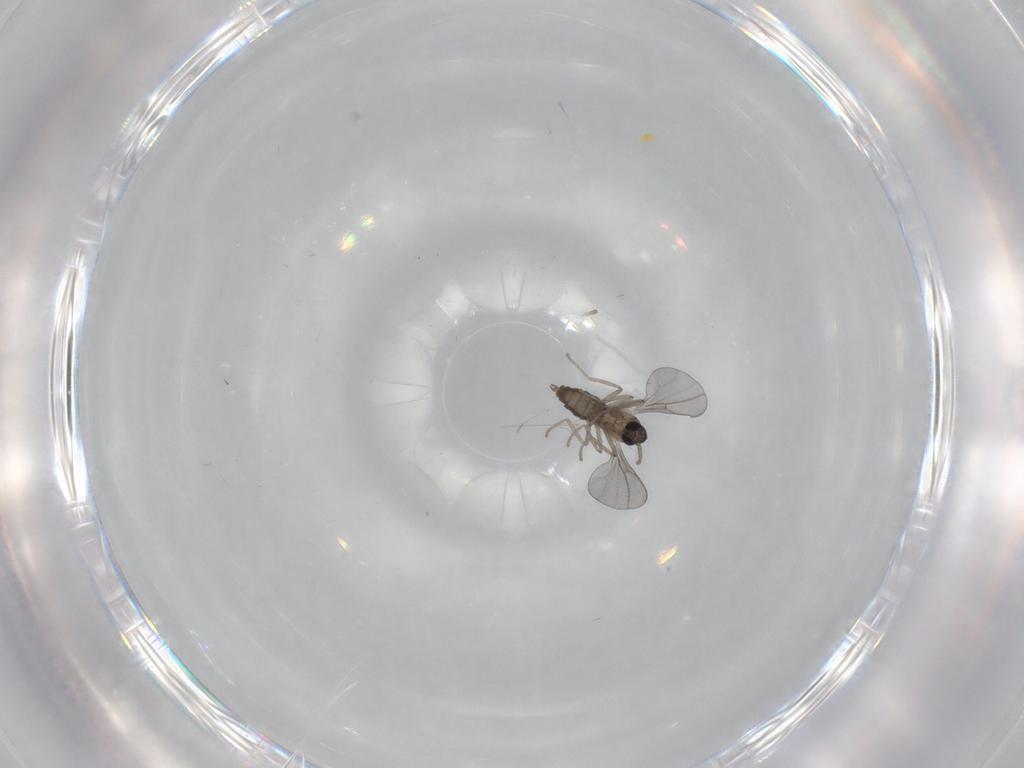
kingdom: Animalia
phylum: Arthropoda
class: Insecta
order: Diptera
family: Cecidomyiidae
